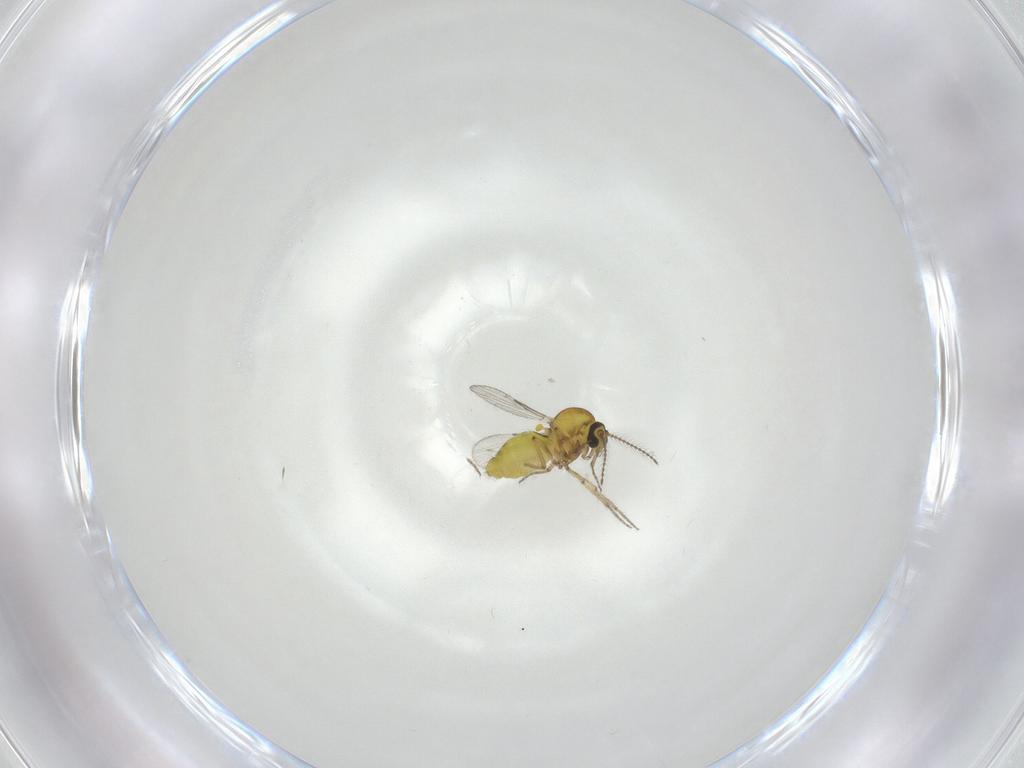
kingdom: Animalia
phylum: Arthropoda
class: Insecta
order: Diptera
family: Ceratopogonidae
